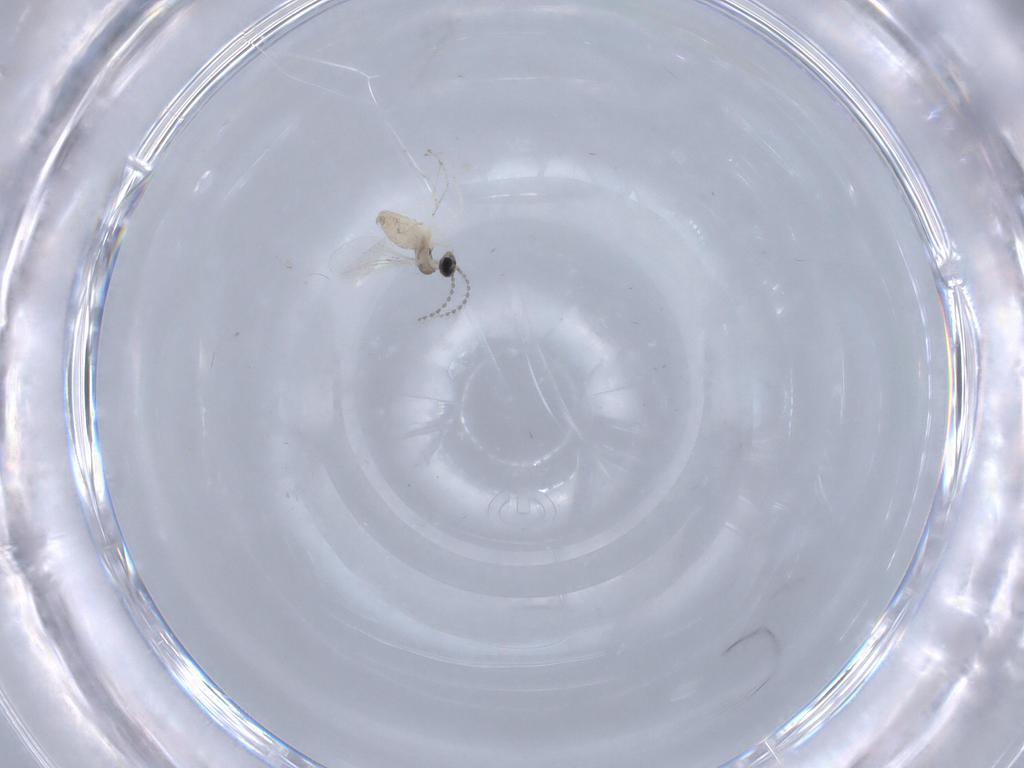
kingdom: Animalia
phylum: Arthropoda
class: Insecta
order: Diptera
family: Cecidomyiidae
